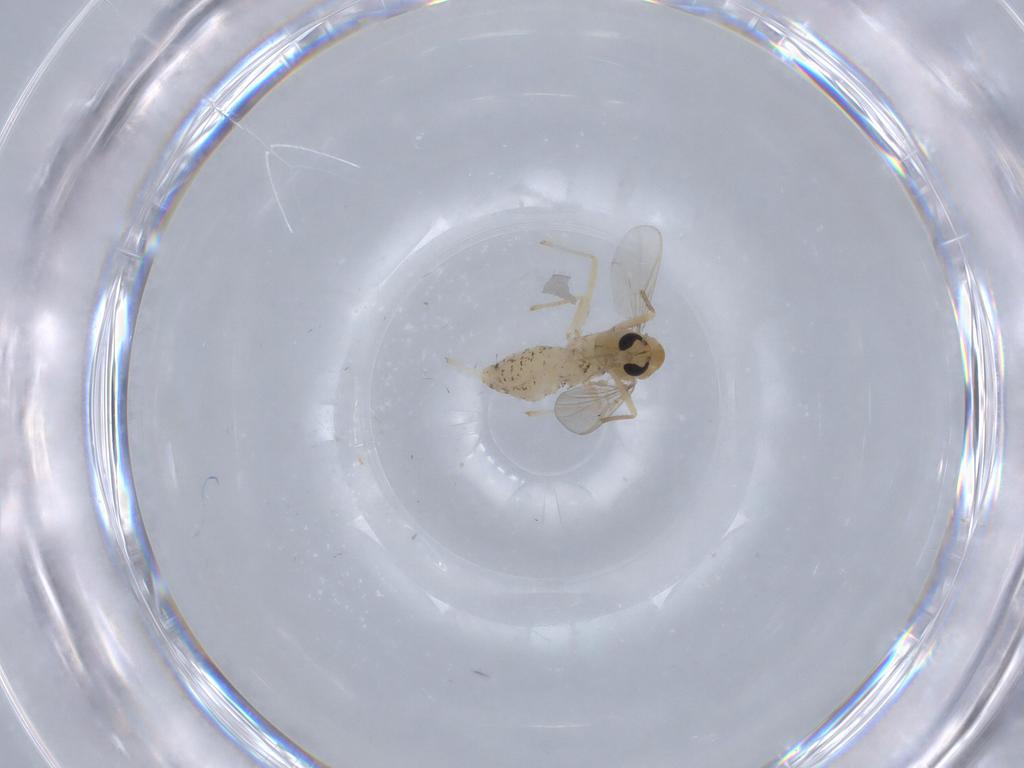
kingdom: Animalia
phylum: Arthropoda
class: Insecta
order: Diptera
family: Chironomidae
